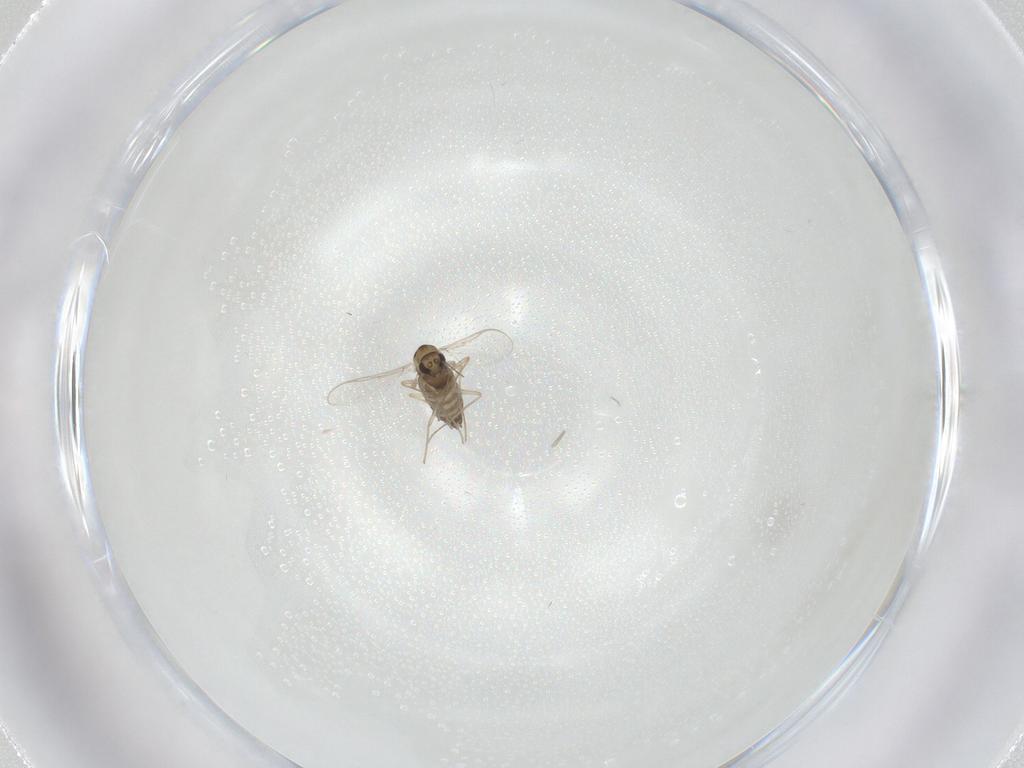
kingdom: Animalia
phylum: Arthropoda
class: Insecta
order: Diptera
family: Chironomidae
